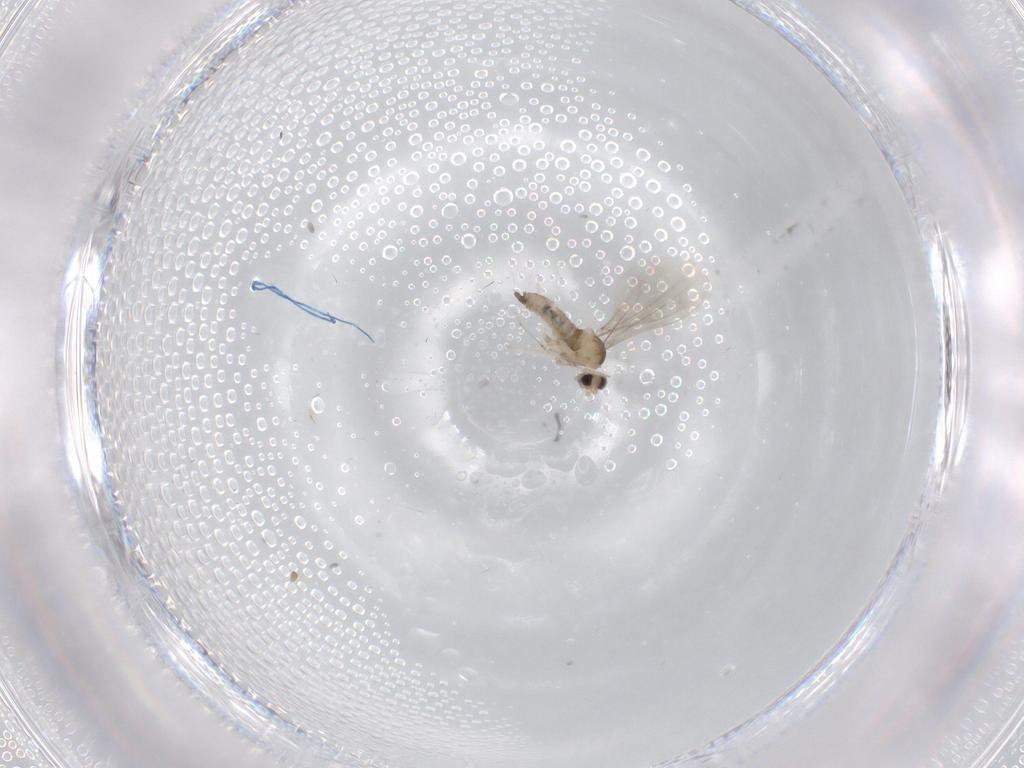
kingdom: Animalia
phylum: Arthropoda
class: Insecta
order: Diptera
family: Cecidomyiidae
